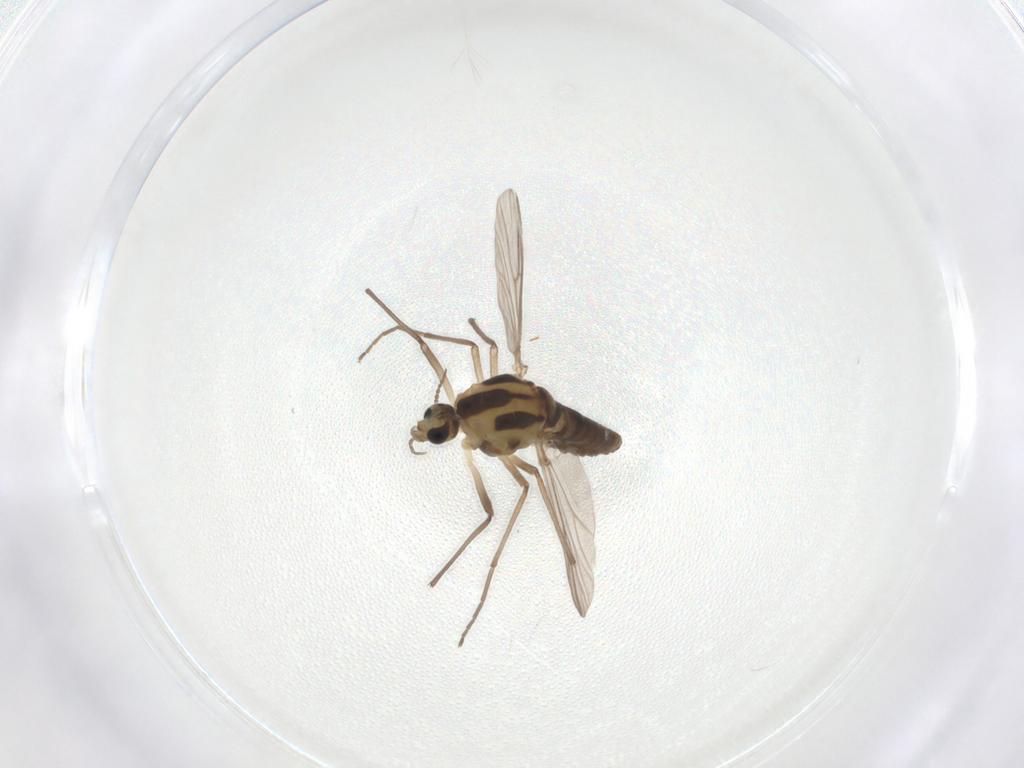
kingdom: Animalia
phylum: Arthropoda
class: Insecta
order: Diptera
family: Chironomidae
